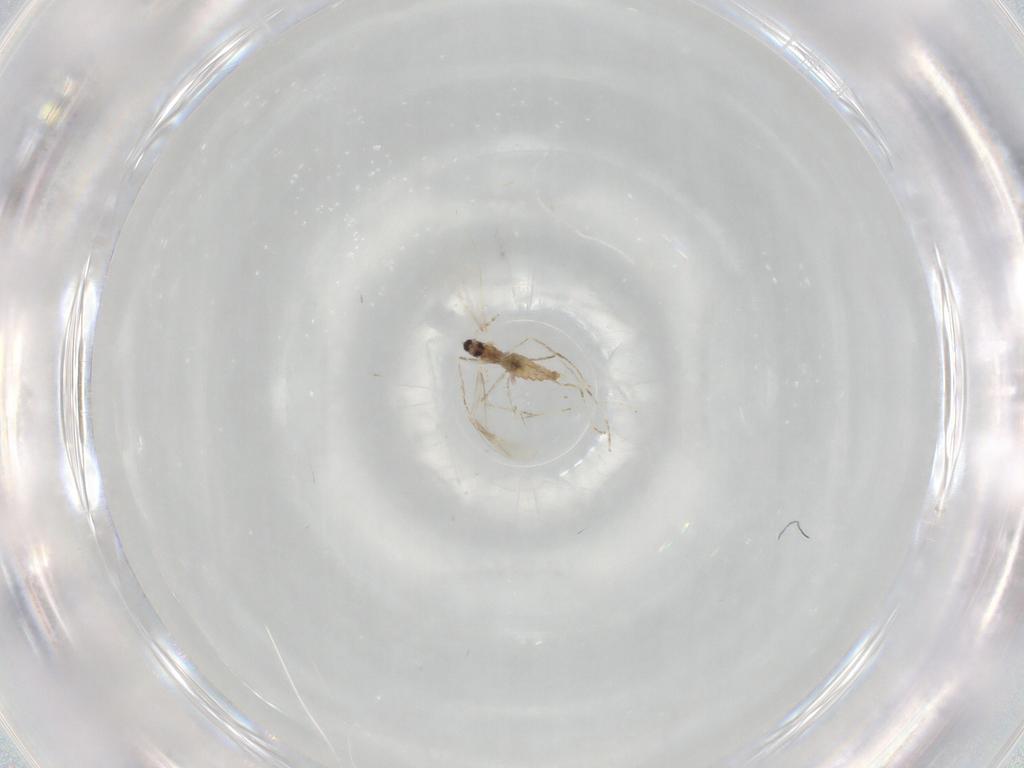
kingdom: Animalia
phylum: Arthropoda
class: Insecta
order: Diptera
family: Cecidomyiidae
